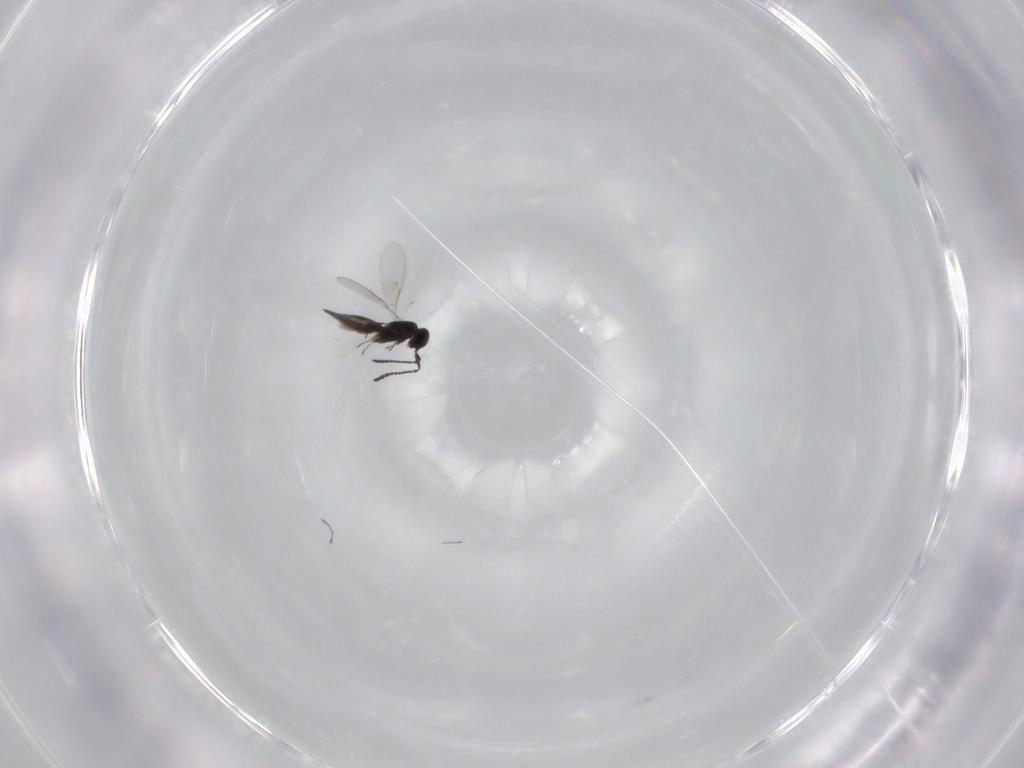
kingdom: Animalia
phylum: Arthropoda
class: Insecta
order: Hymenoptera
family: Scelionidae
